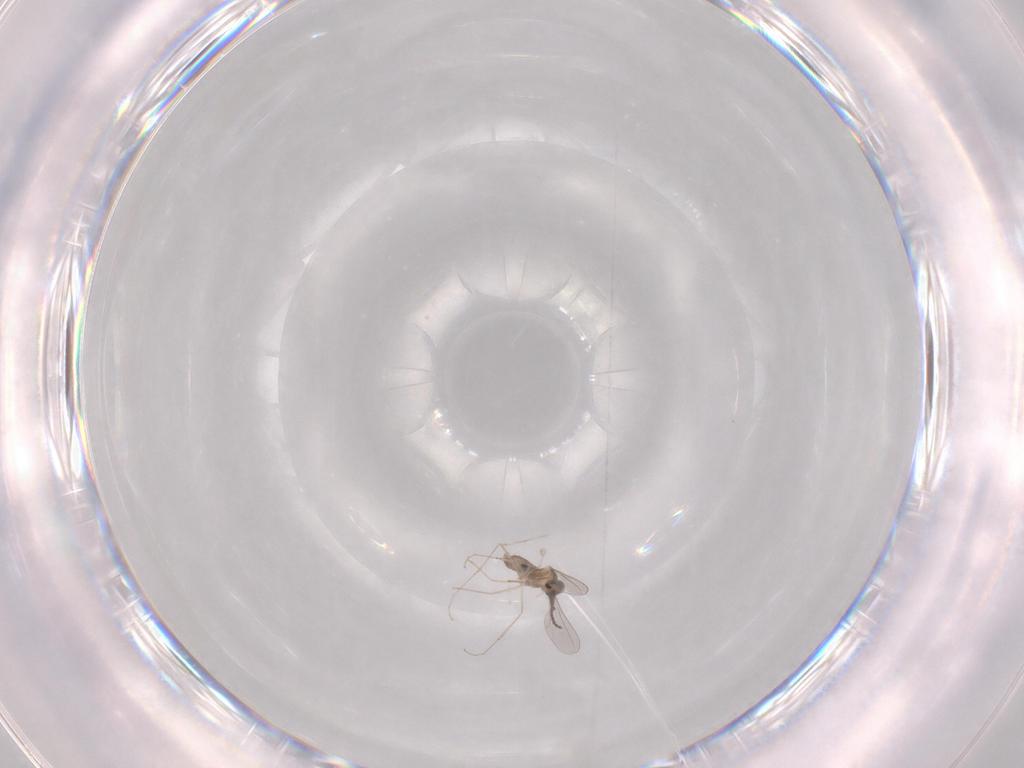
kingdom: Animalia
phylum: Arthropoda
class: Insecta
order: Diptera
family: Cecidomyiidae
